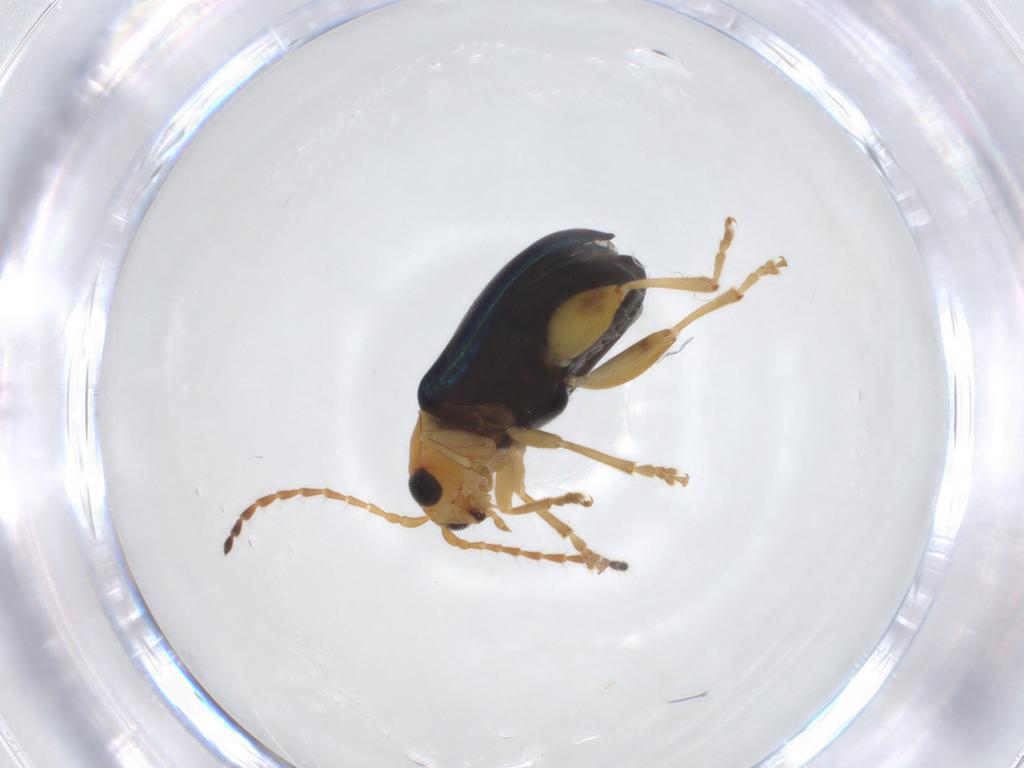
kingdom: Animalia
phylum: Arthropoda
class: Insecta
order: Coleoptera
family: Chrysomelidae
